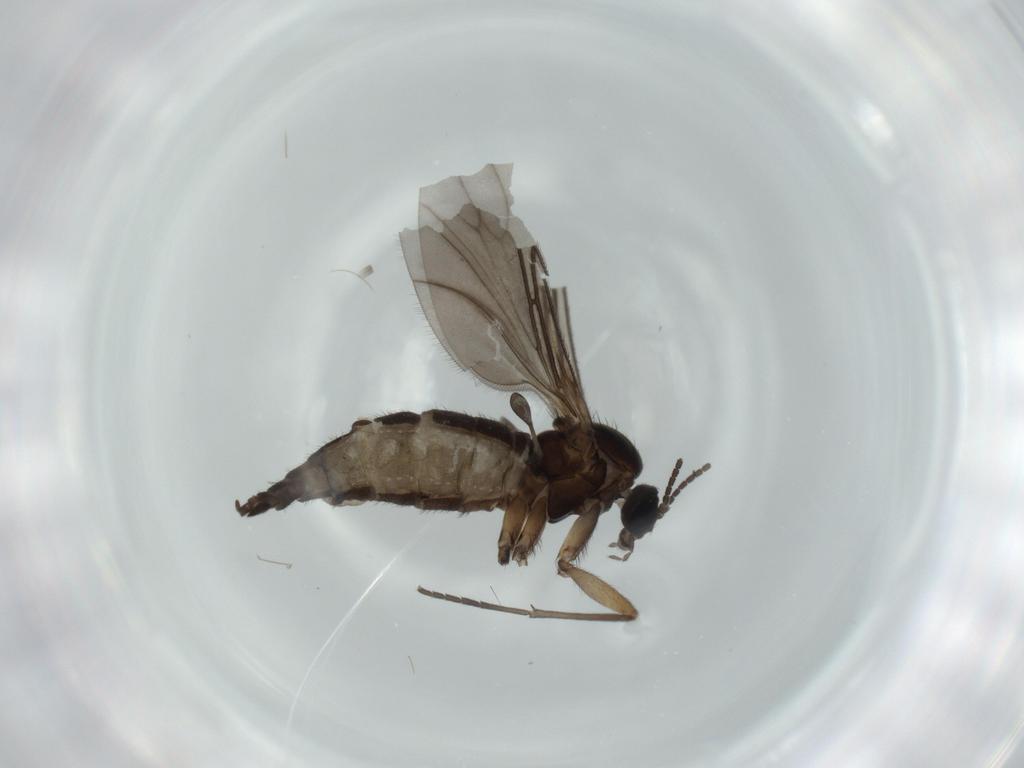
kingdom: Animalia
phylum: Arthropoda
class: Insecta
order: Diptera
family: Sciaridae
